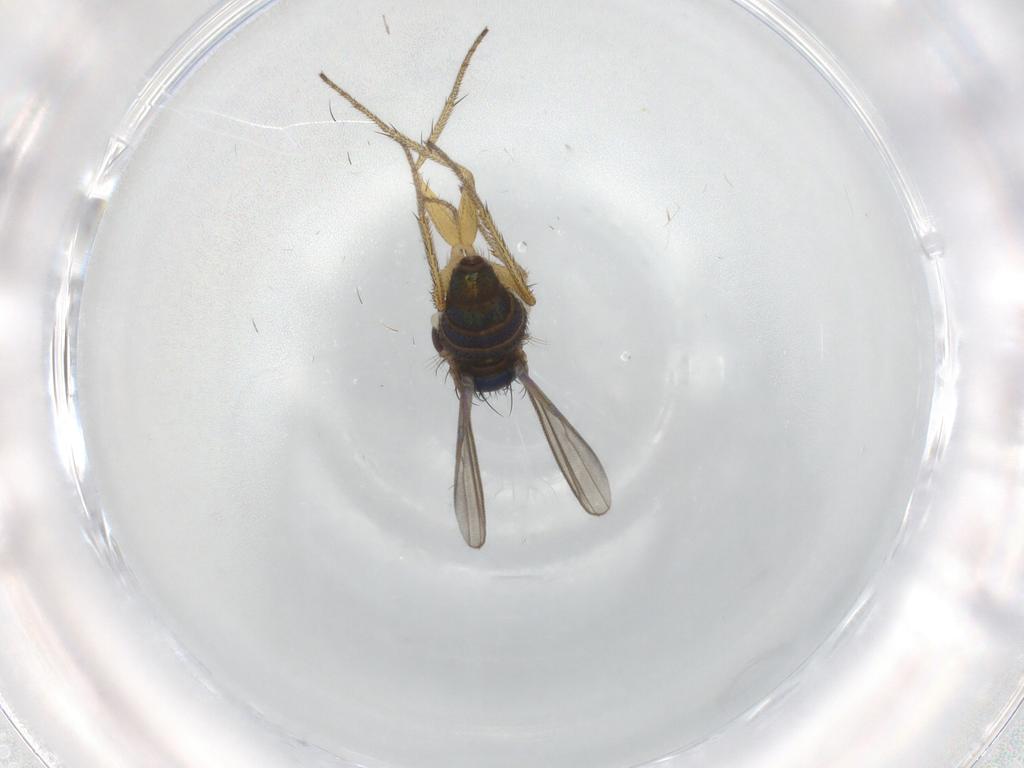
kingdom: Animalia
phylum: Arthropoda
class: Insecta
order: Diptera
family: Dolichopodidae
